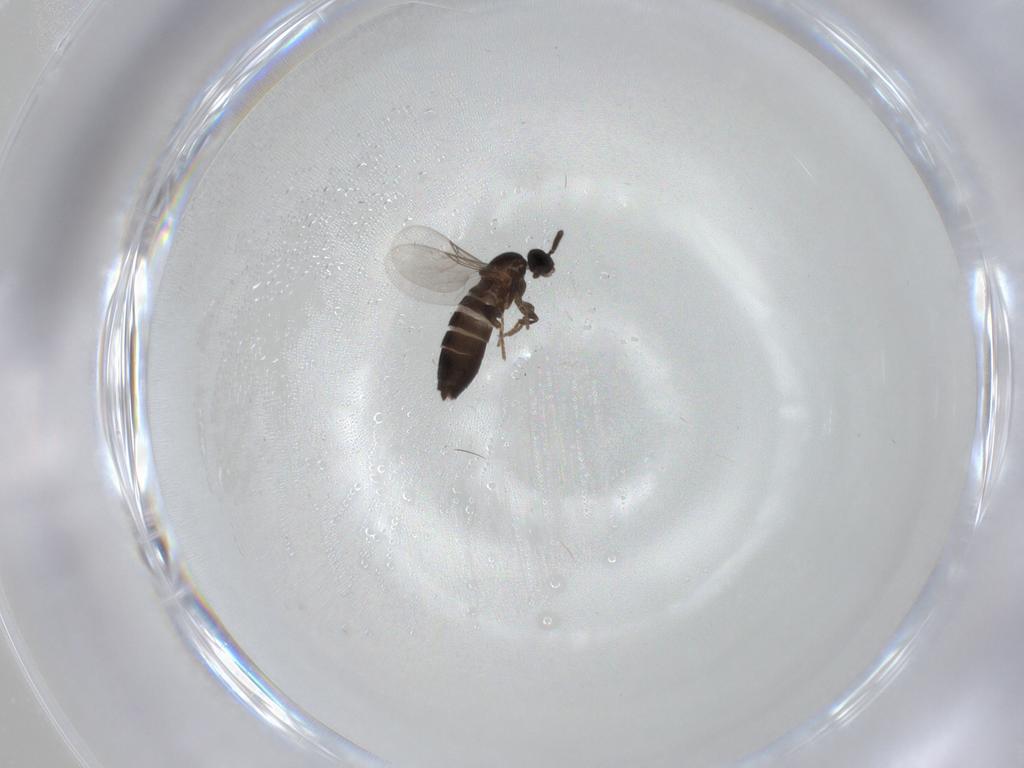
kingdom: Animalia
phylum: Arthropoda
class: Insecta
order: Diptera
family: Scatopsidae
